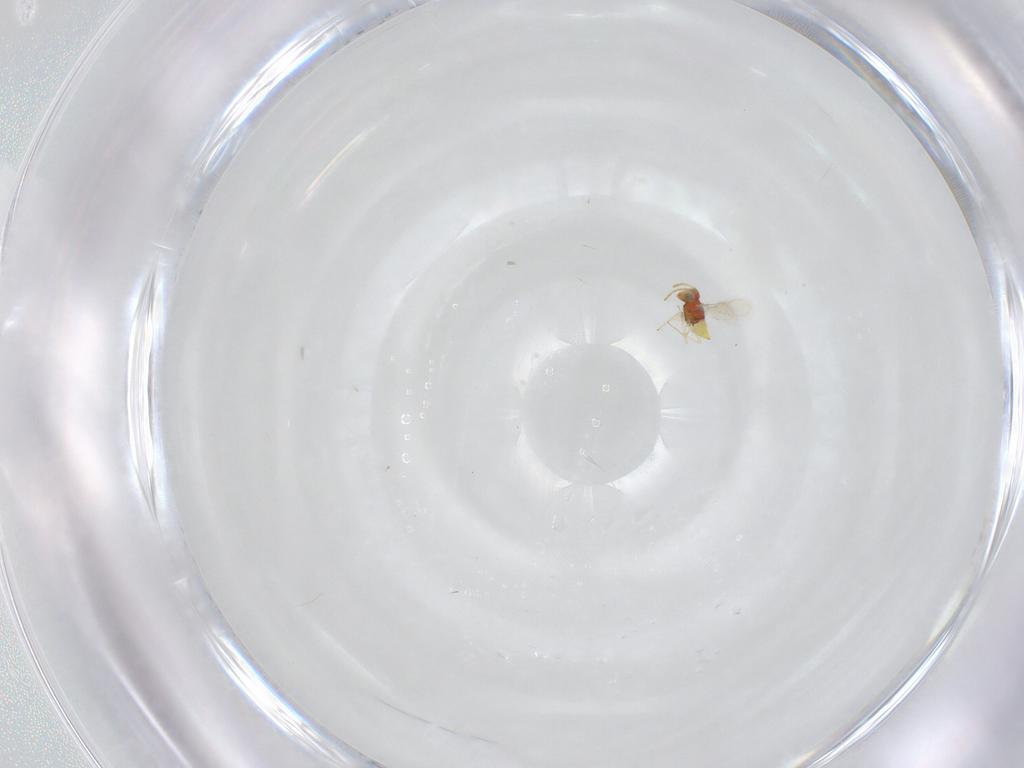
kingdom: Animalia
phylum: Arthropoda
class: Insecta
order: Hymenoptera
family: Aphelinidae
